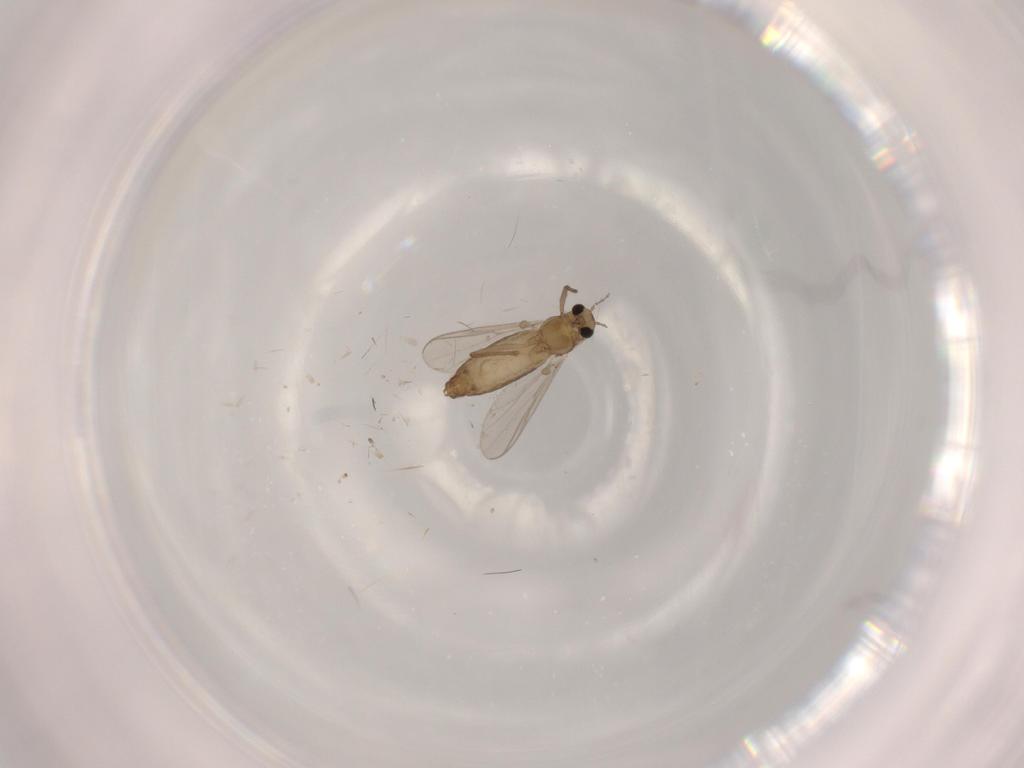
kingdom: Animalia
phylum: Arthropoda
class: Insecta
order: Diptera
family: Chironomidae
